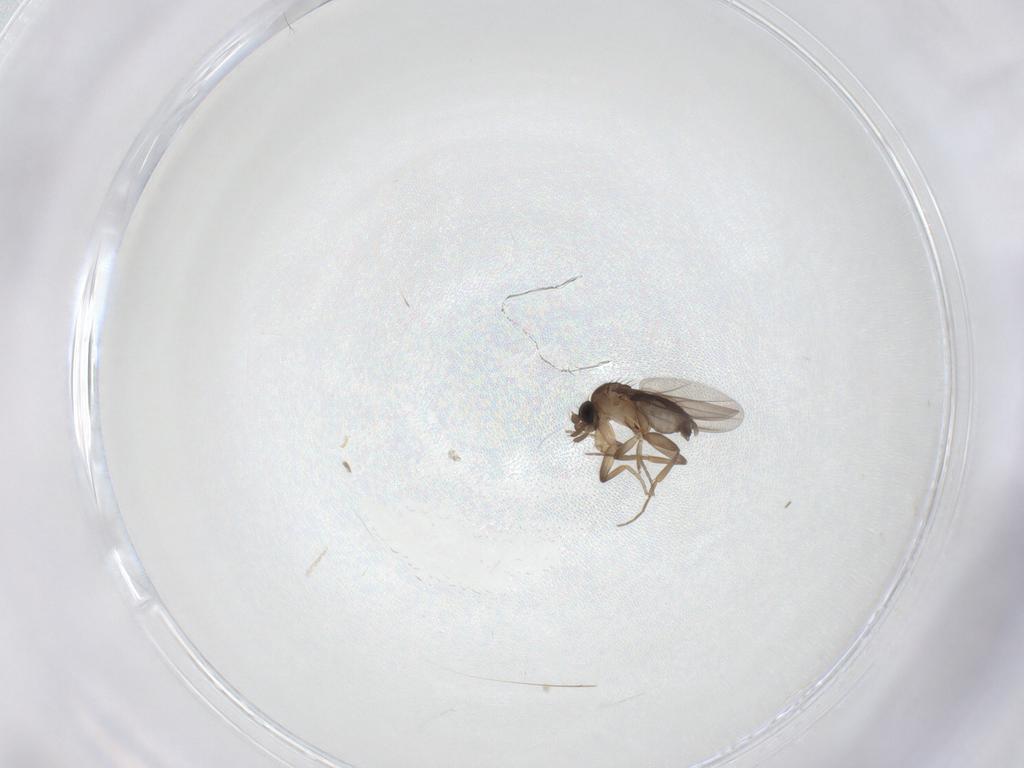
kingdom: Animalia
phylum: Arthropoda
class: Insecta
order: Diptera
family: Phoridae
